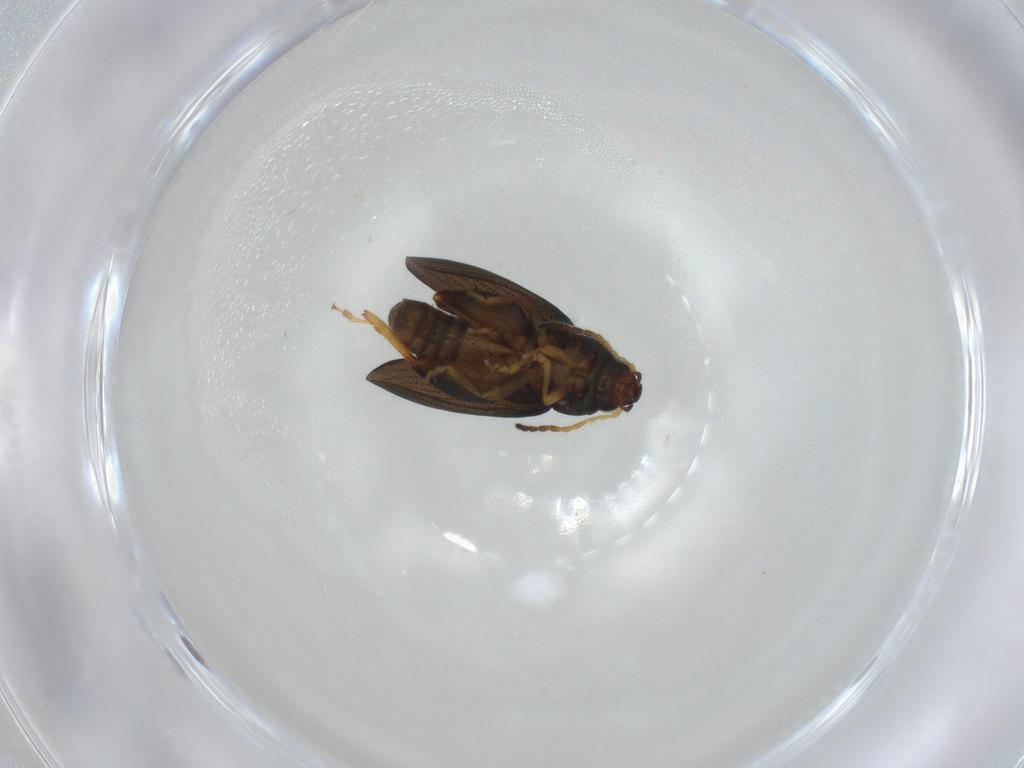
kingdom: Animalia
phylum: Arthropoda
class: Insecta
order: Coleoptera
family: Chrysomelidae
